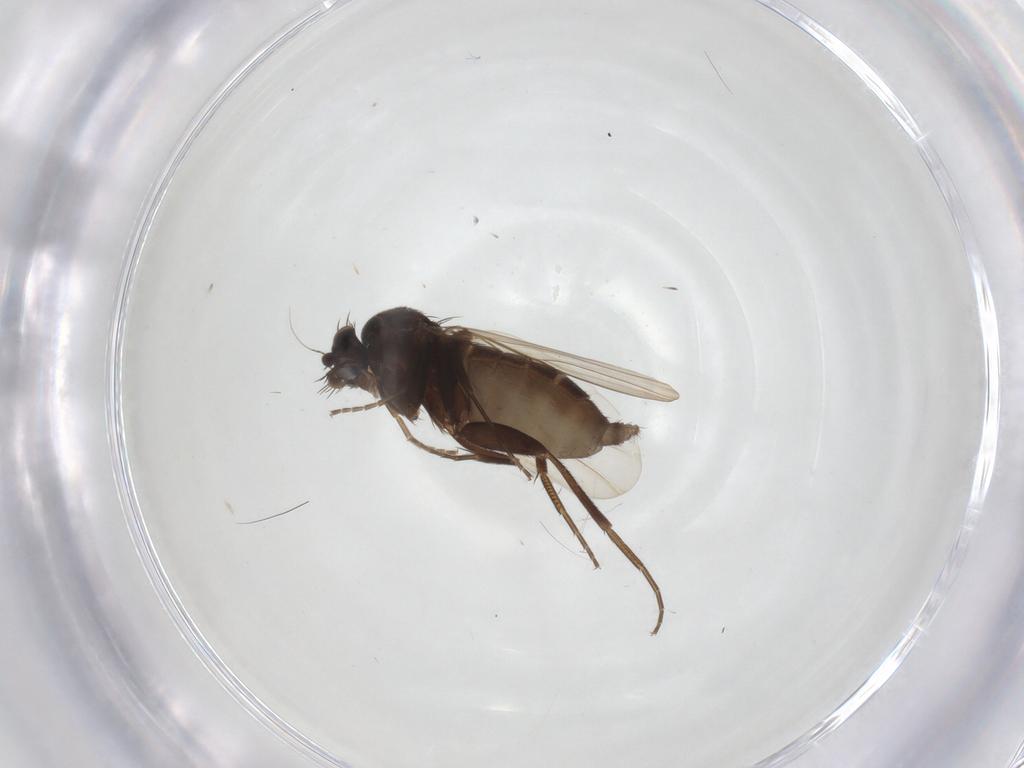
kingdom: Animalia
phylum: Arthropoda
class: Insecta
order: Diptera
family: Phoridae
